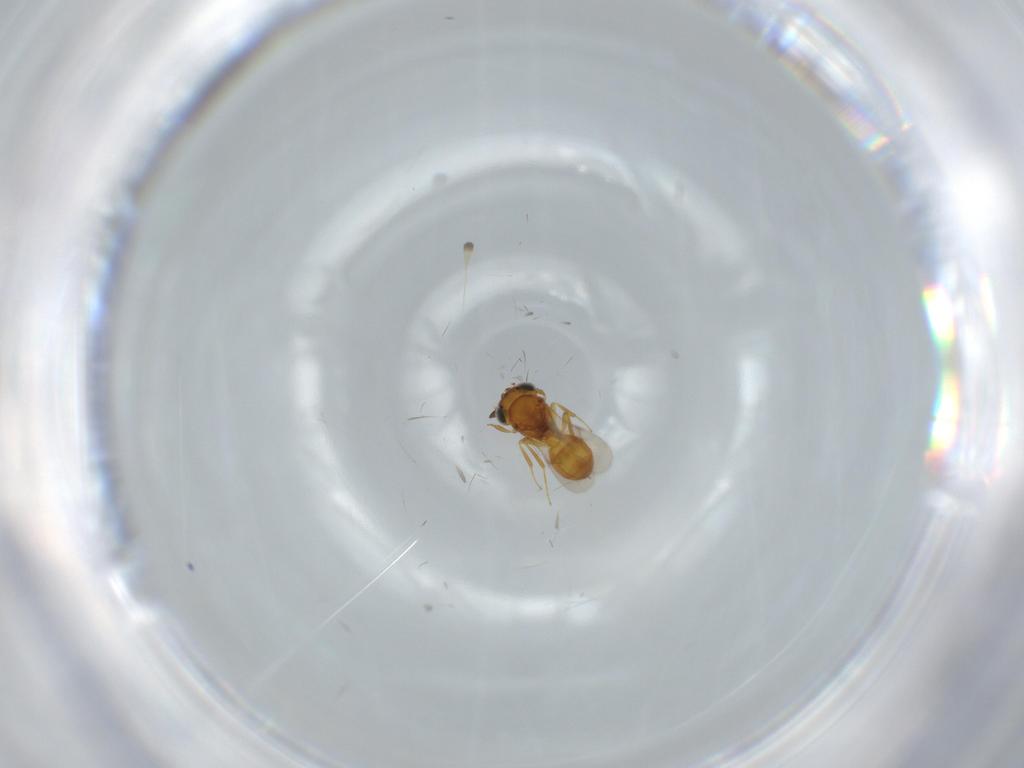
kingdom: Animalia
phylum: Arthropoda
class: Insecta
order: Hymenoptera
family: Scelionidae
